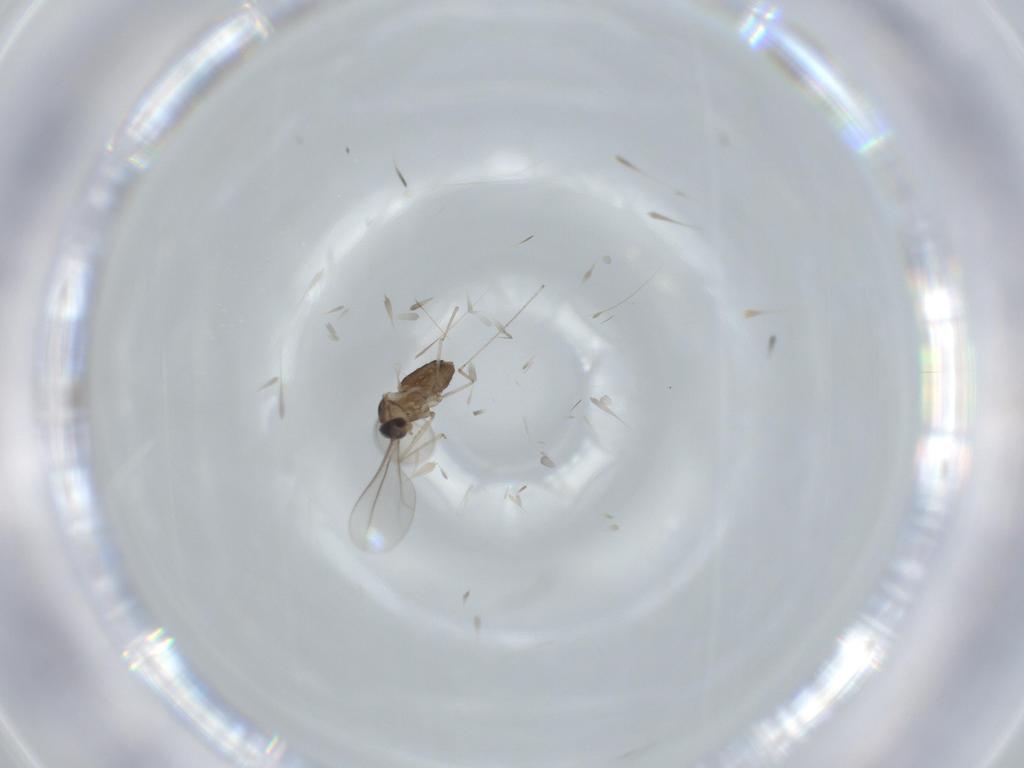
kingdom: Animalia
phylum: Arthropoda
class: Insecta
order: Diptera
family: Cecidomyiidae
